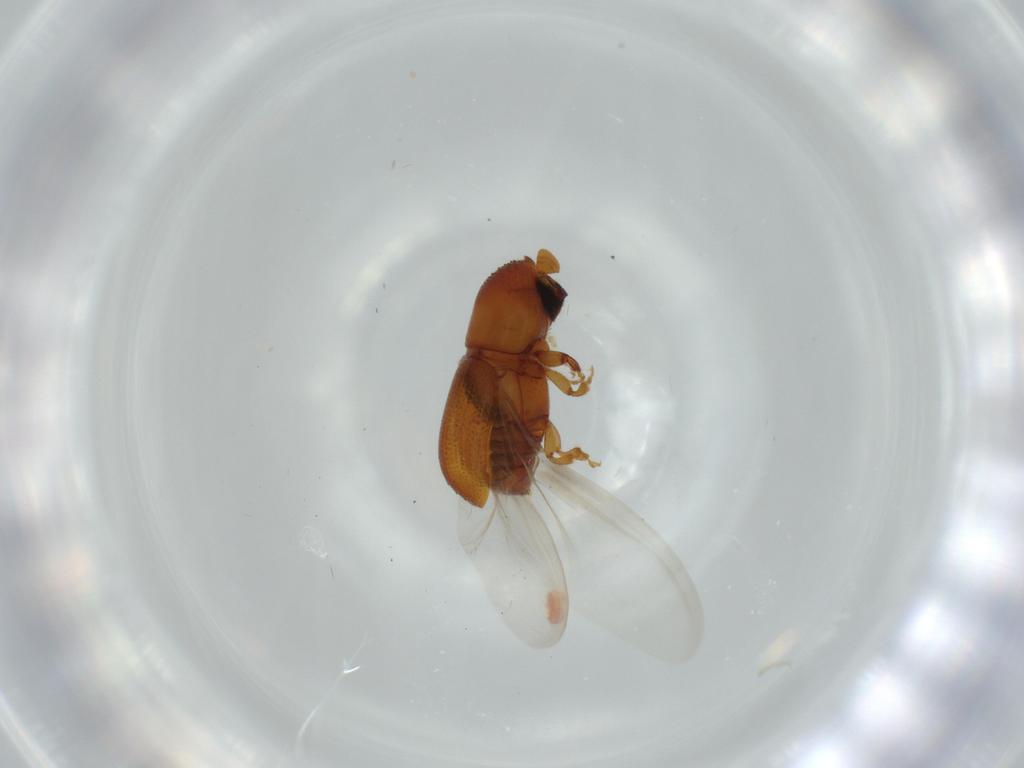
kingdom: Animalia
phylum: Arthropoda
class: Insecta
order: Coleoptera
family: Curculionidae
